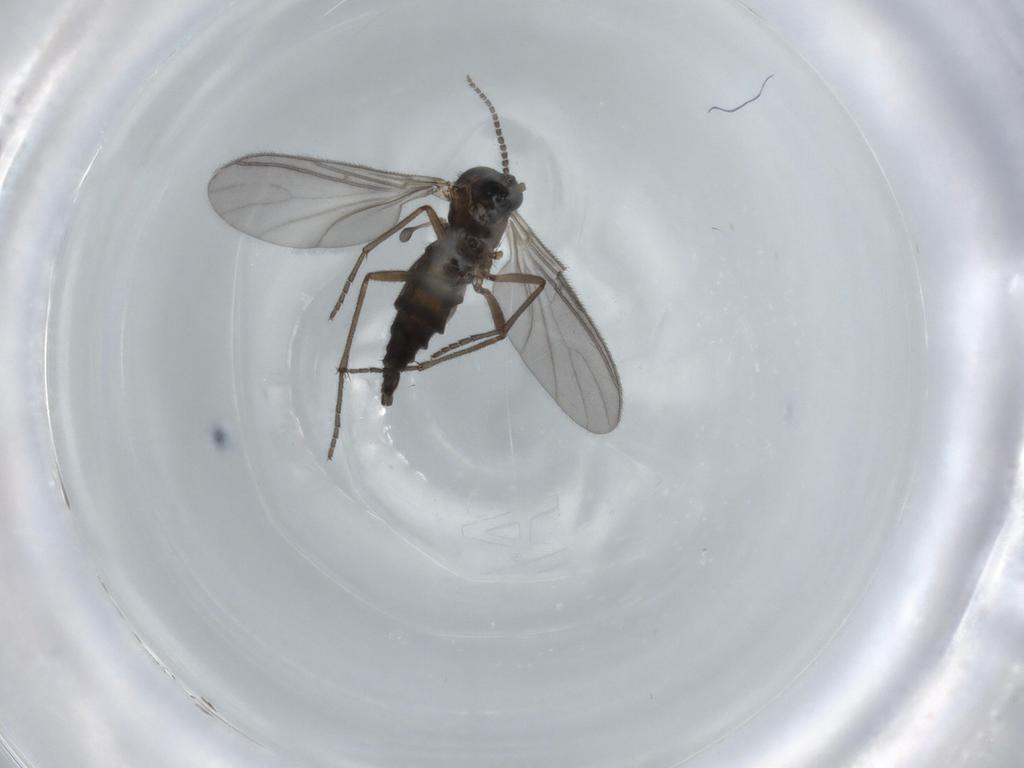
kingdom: Animalia
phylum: Arthropoda
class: Insecta
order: Diptera
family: Sciaridae
